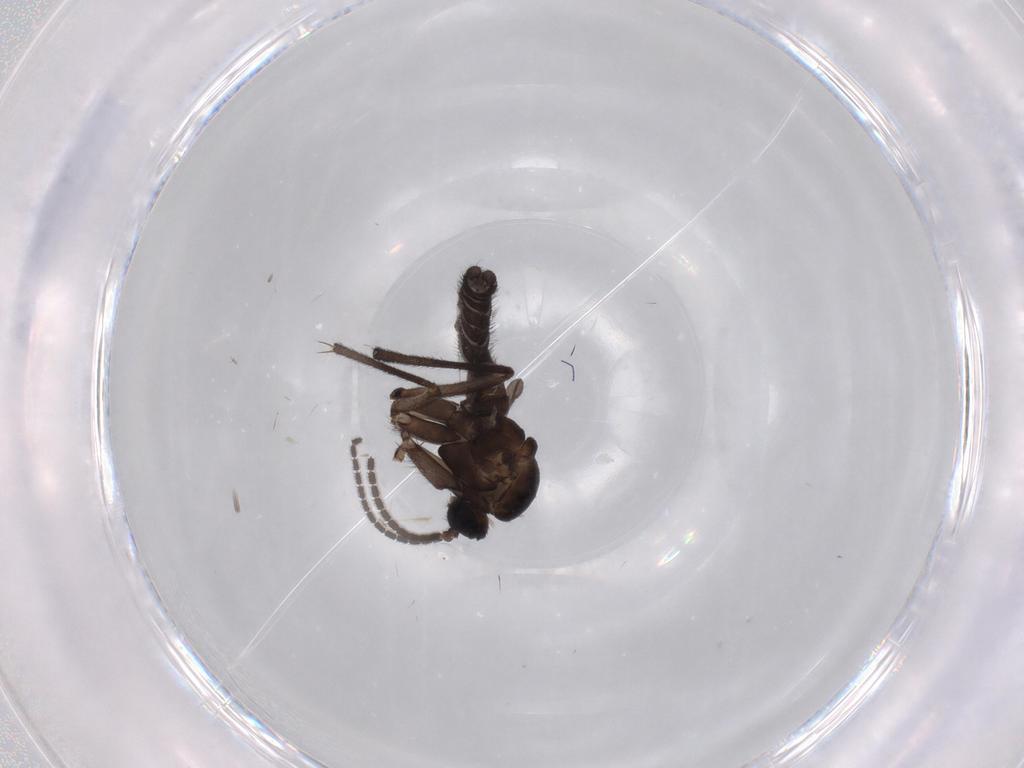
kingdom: Animalia
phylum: Arthropoda
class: Insecta
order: Diptera
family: Sciaridae
